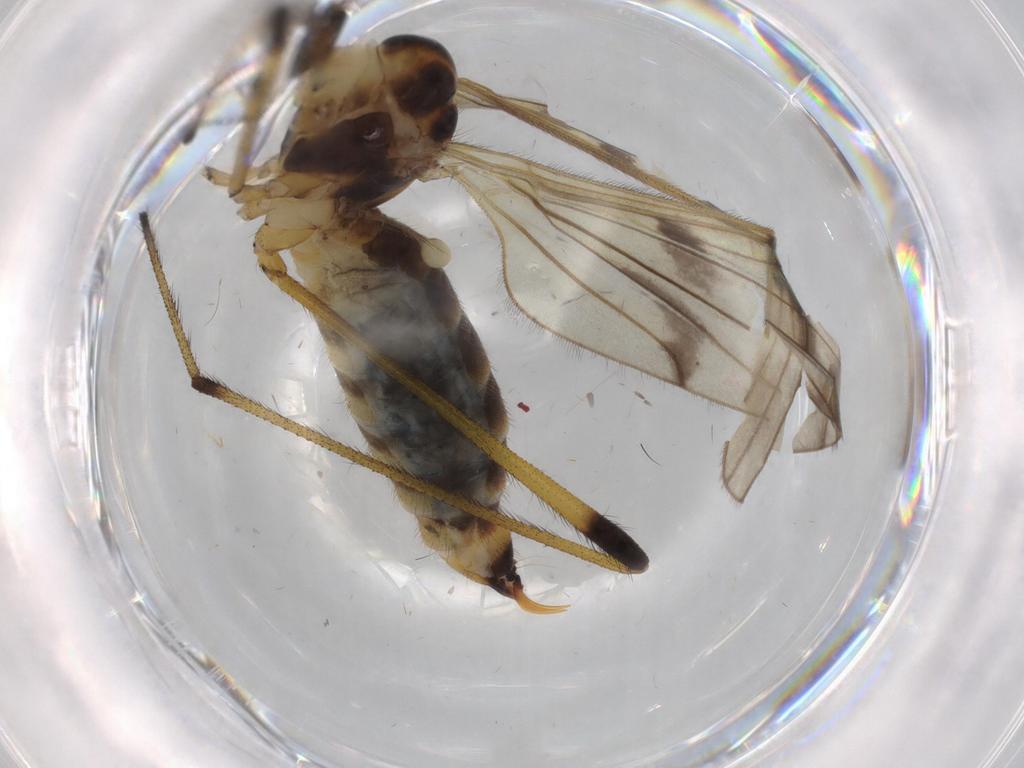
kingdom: Animalia
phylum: Arthropoda
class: Insecta
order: Diptera
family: Limoniidae
